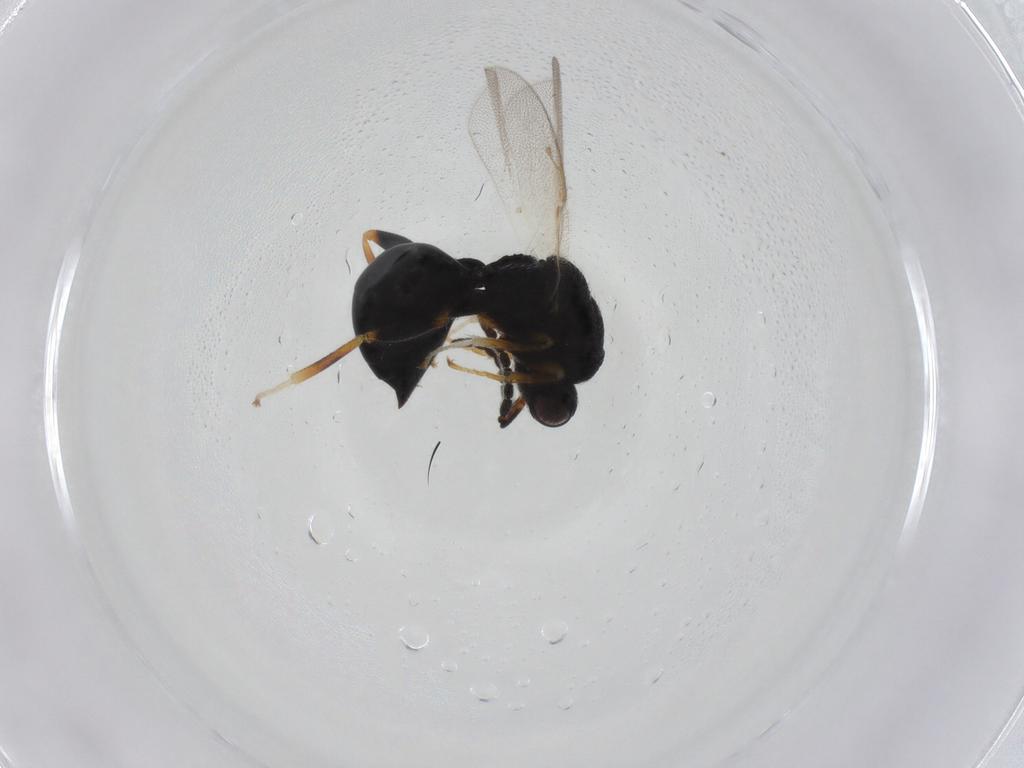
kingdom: Animalia
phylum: Arthropoda
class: Insecta
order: Hymenoptera
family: Eurytomidae
